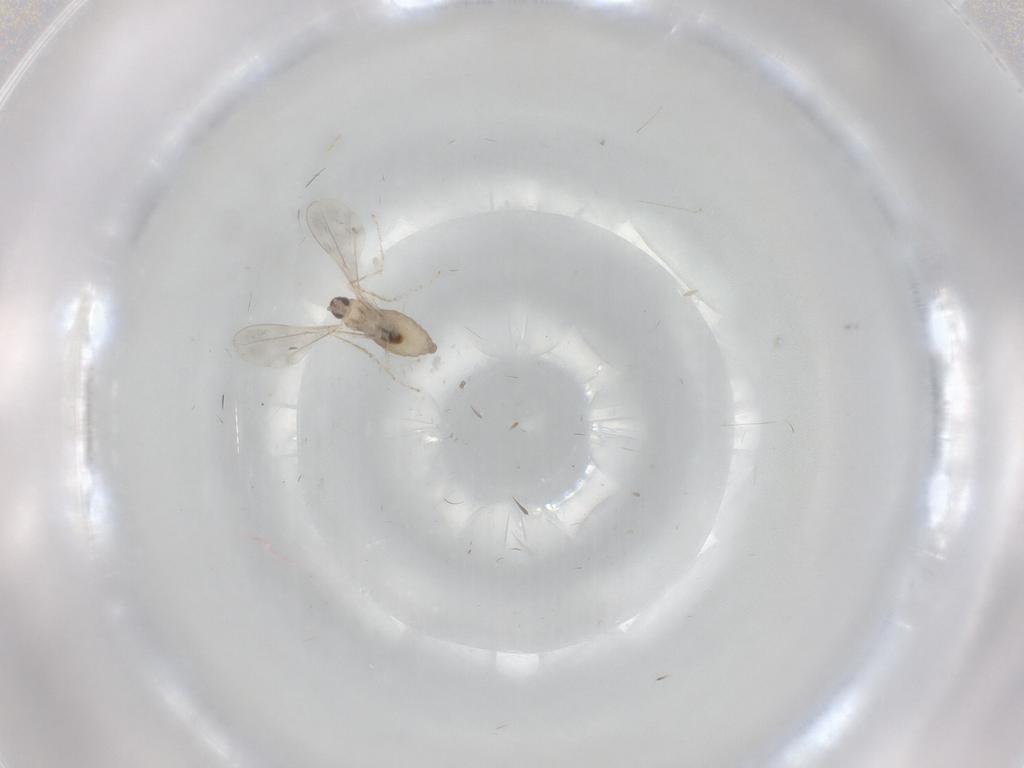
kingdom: Animalia
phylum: Arthropoda
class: Insecta
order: Diptera
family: Cecidomyiidae
